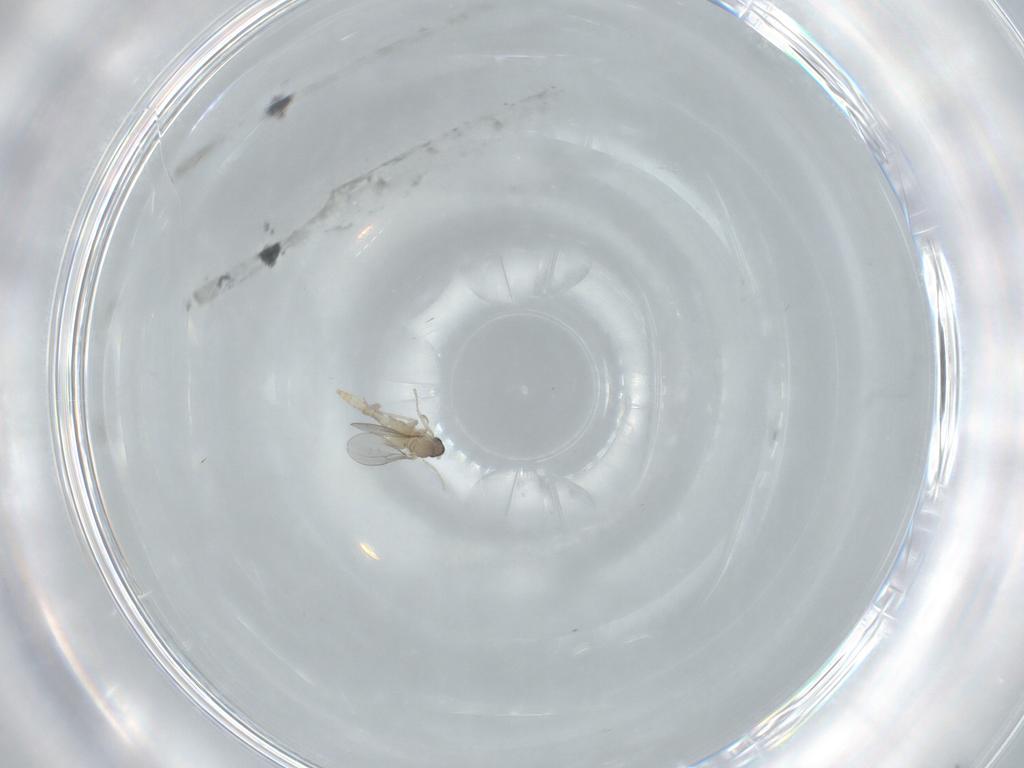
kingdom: Animalia
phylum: Arthropoda
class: Insecta
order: Diptera
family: Cecidomyiidae
